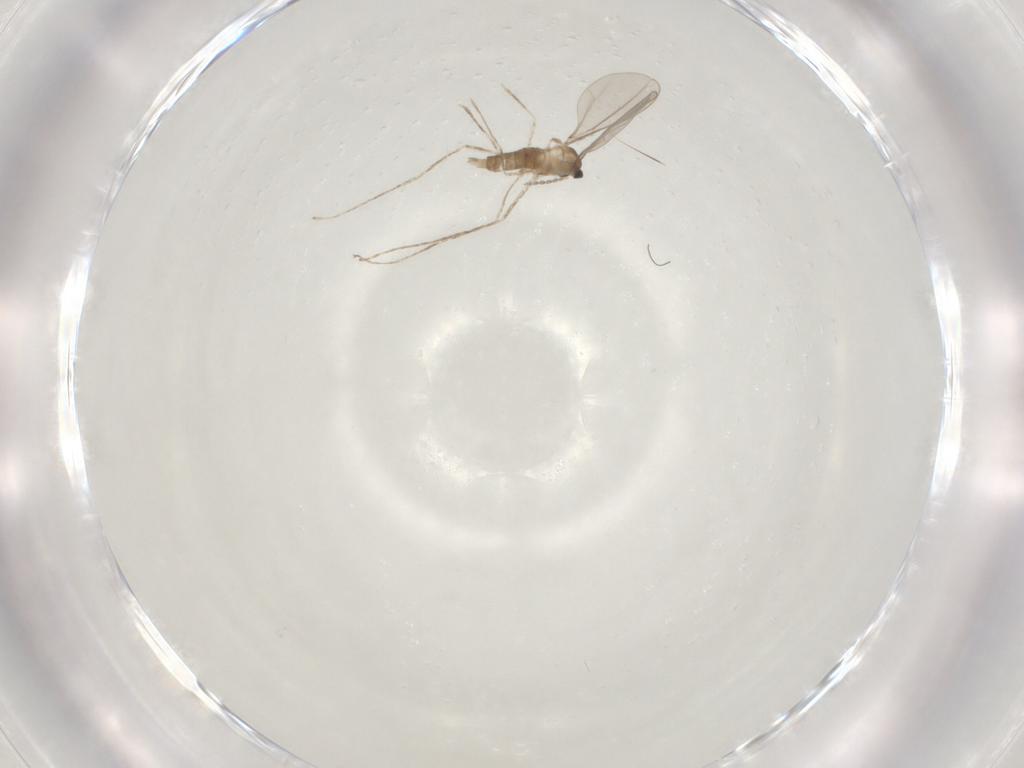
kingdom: Animalia
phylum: Arthropoda
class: Insecta
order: Diptera
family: Cecidomyiidae
